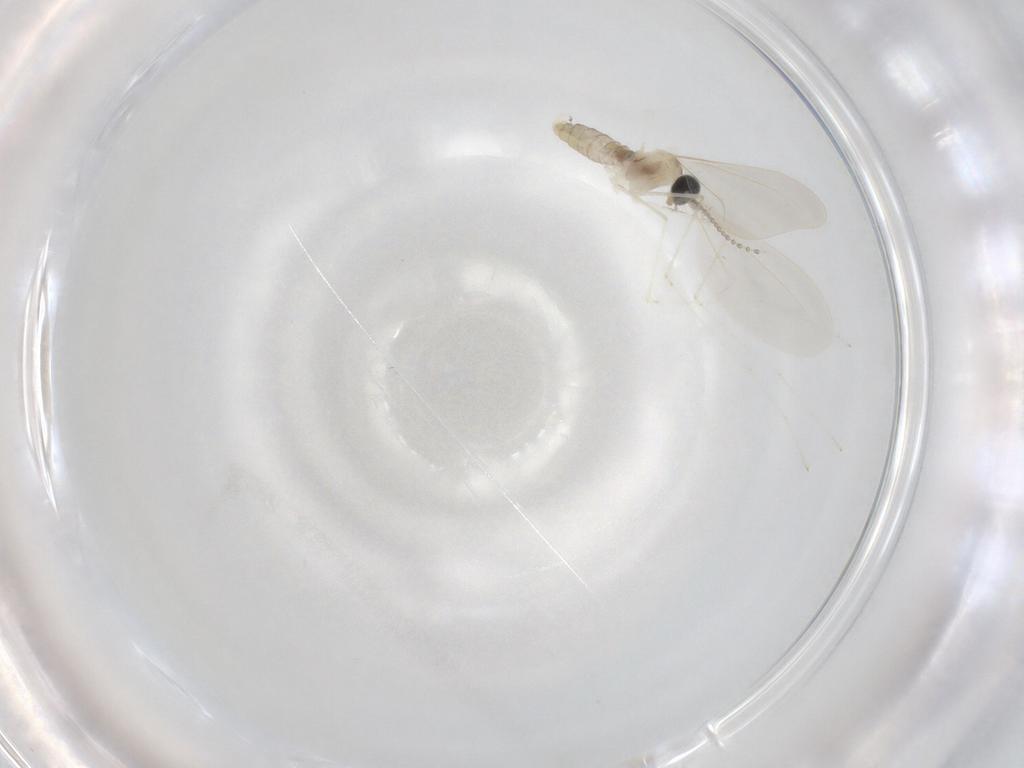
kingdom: Animalia
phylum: Arthropoda
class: Insecta
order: Diptera
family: Cecidomyiidae
